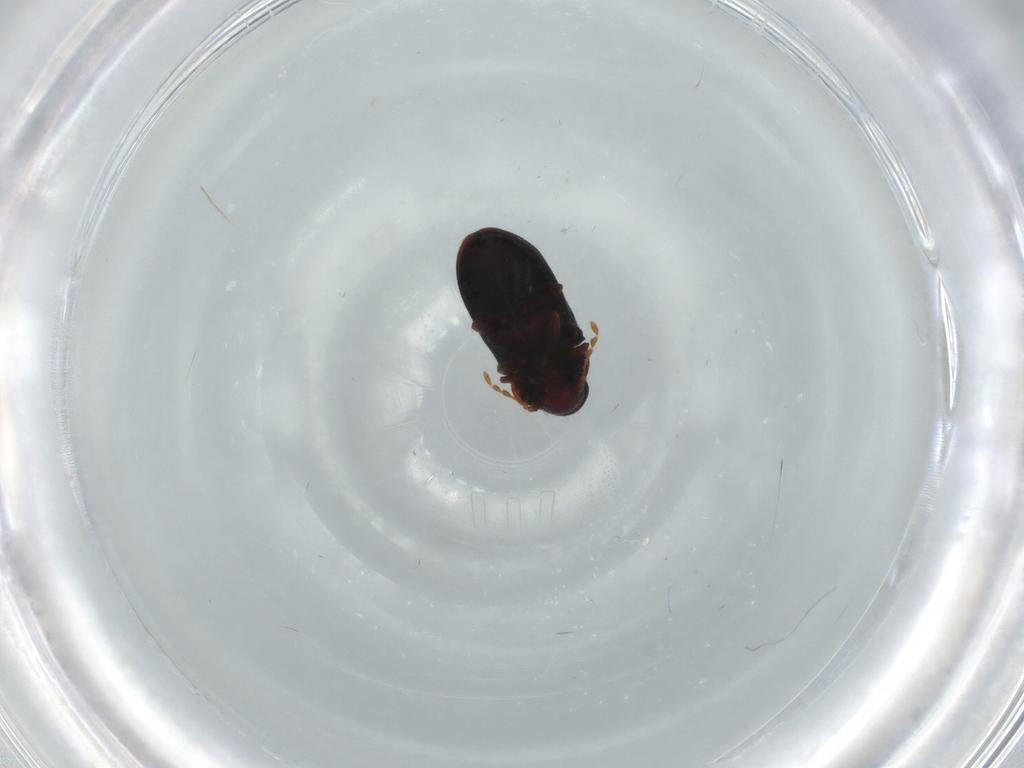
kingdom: Animalia
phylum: Arthropoda
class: Insecta
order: Coleoptera
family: Ptinidae
